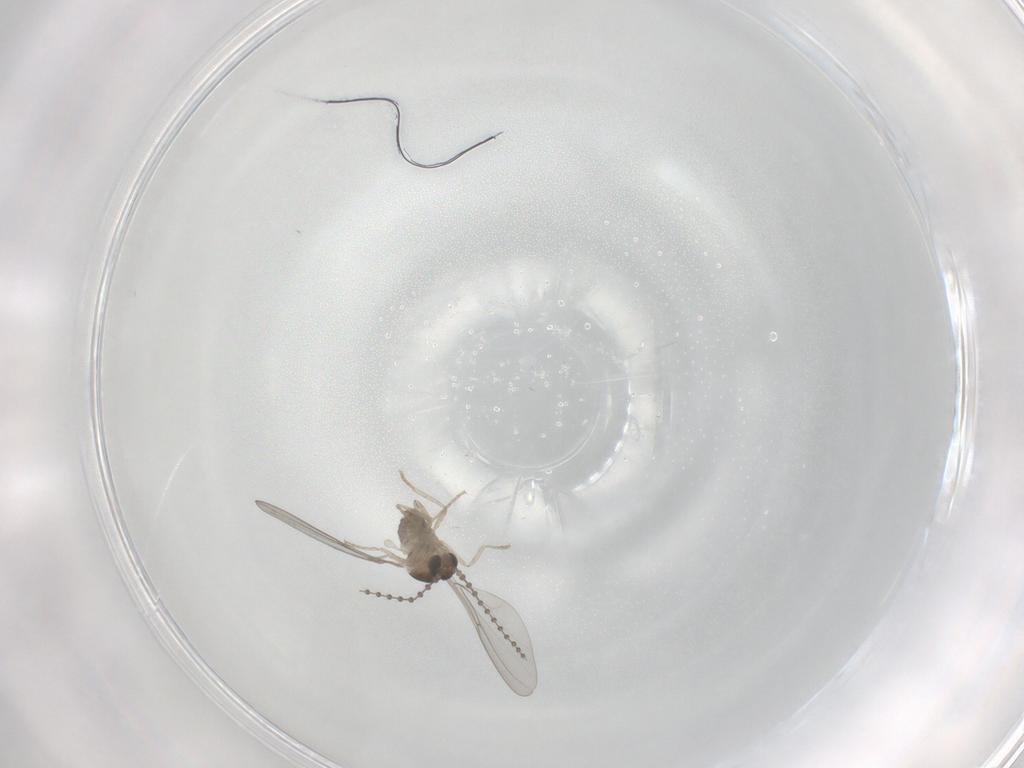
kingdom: Animalia
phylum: Arthropoda
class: Insecta
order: Diptera
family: Limoniidae
